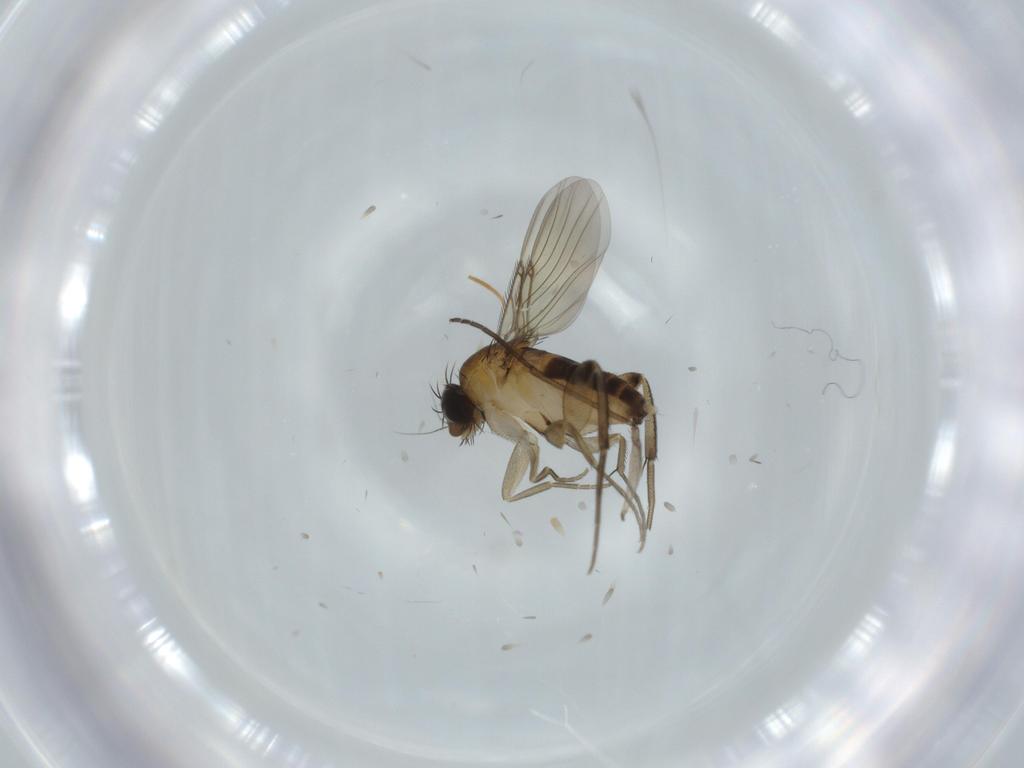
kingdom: Animalia
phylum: Arthropoda
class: Insecta
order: Diptera
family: Phoridae
